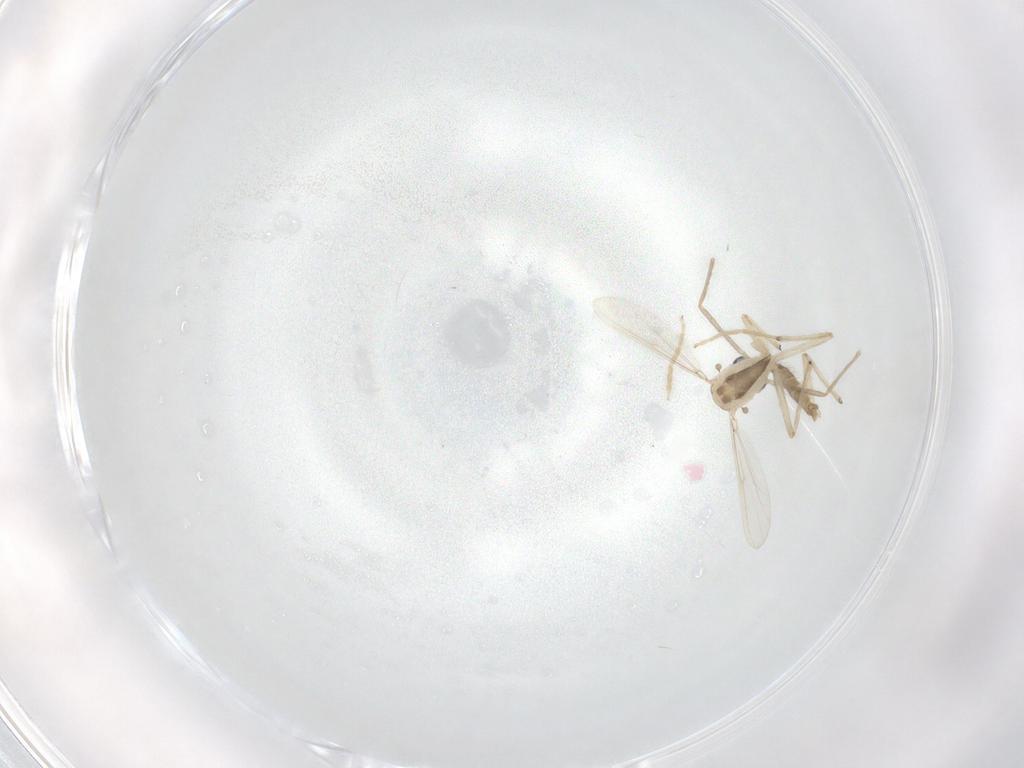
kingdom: Animalia
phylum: Arthropoda
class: Insecta
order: Diptera
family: Chironomidae
